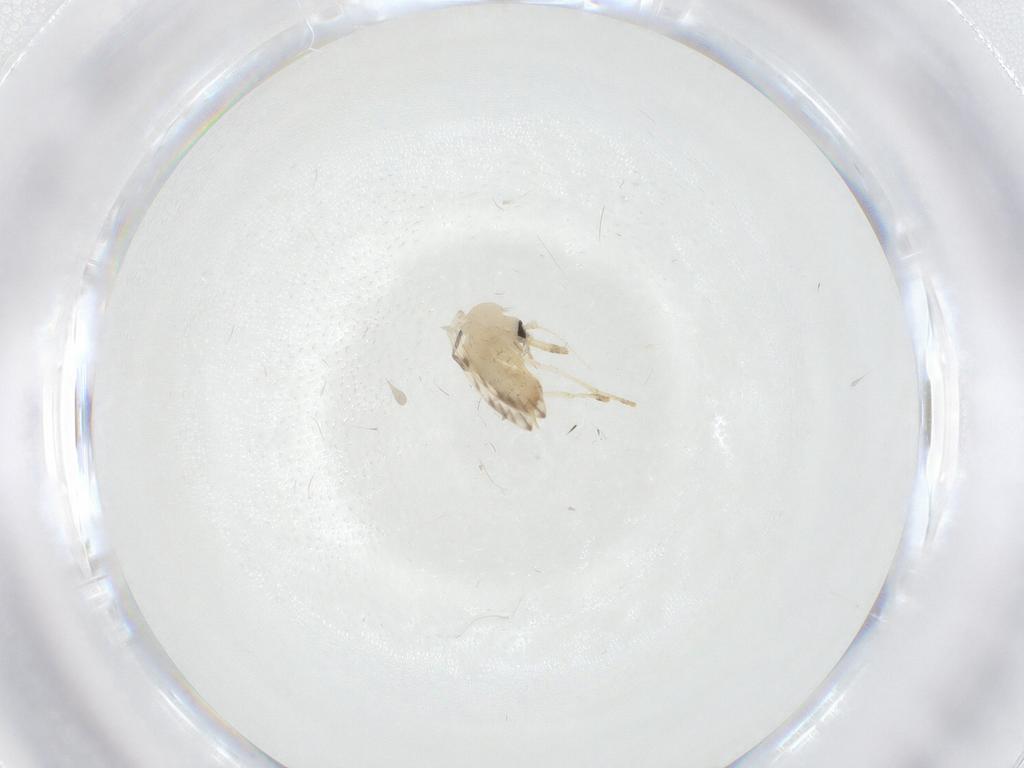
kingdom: Animalia
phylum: Arthropoda
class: Insecta
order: Diptera
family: Psychodidae
